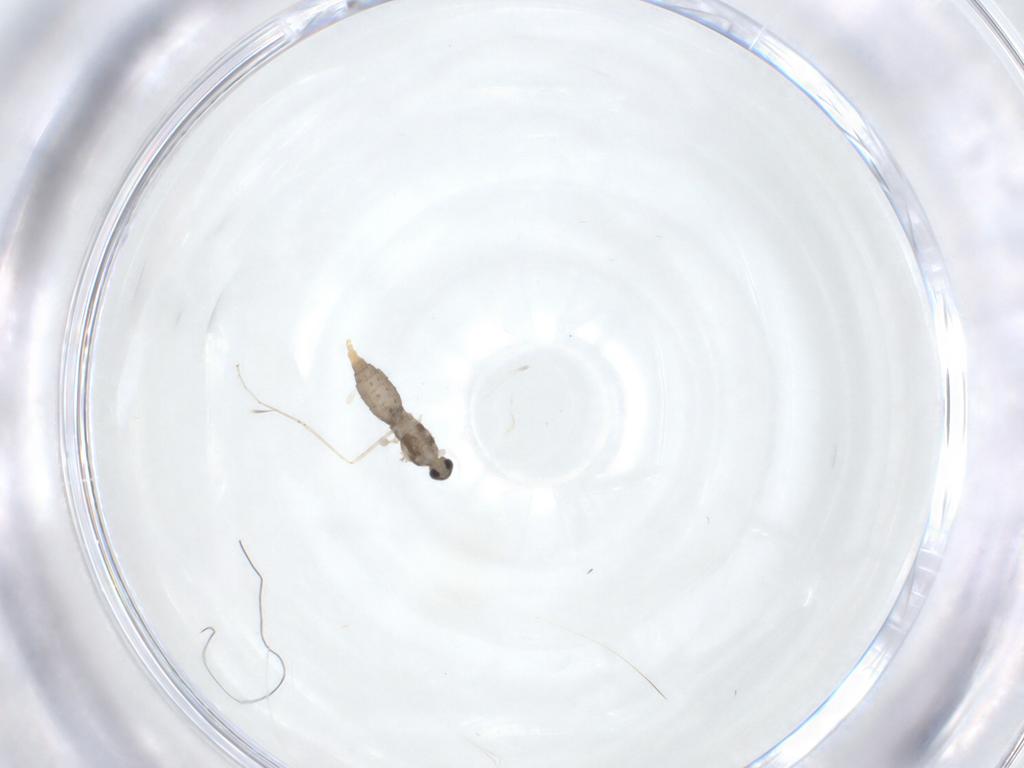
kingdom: Animalia
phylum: Arthropoda
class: Insecta
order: Diptera
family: Cecidomyiidae
